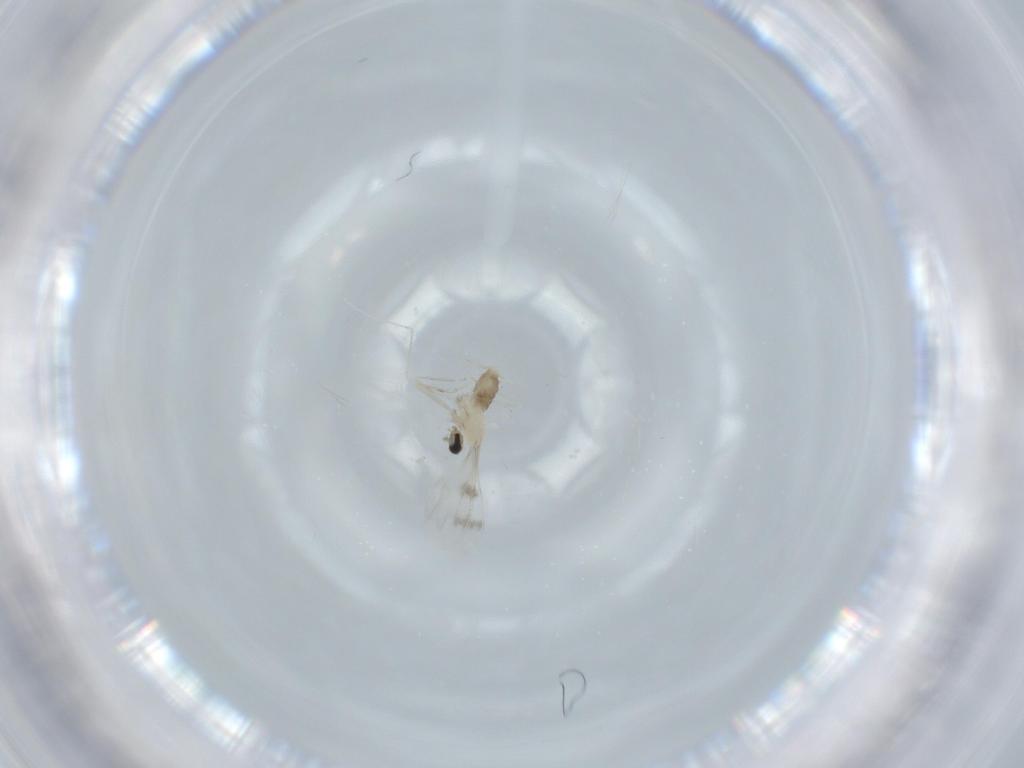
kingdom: Animalia
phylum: Arthropoda
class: Insecta
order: Diptera
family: Cecidomyiidae
